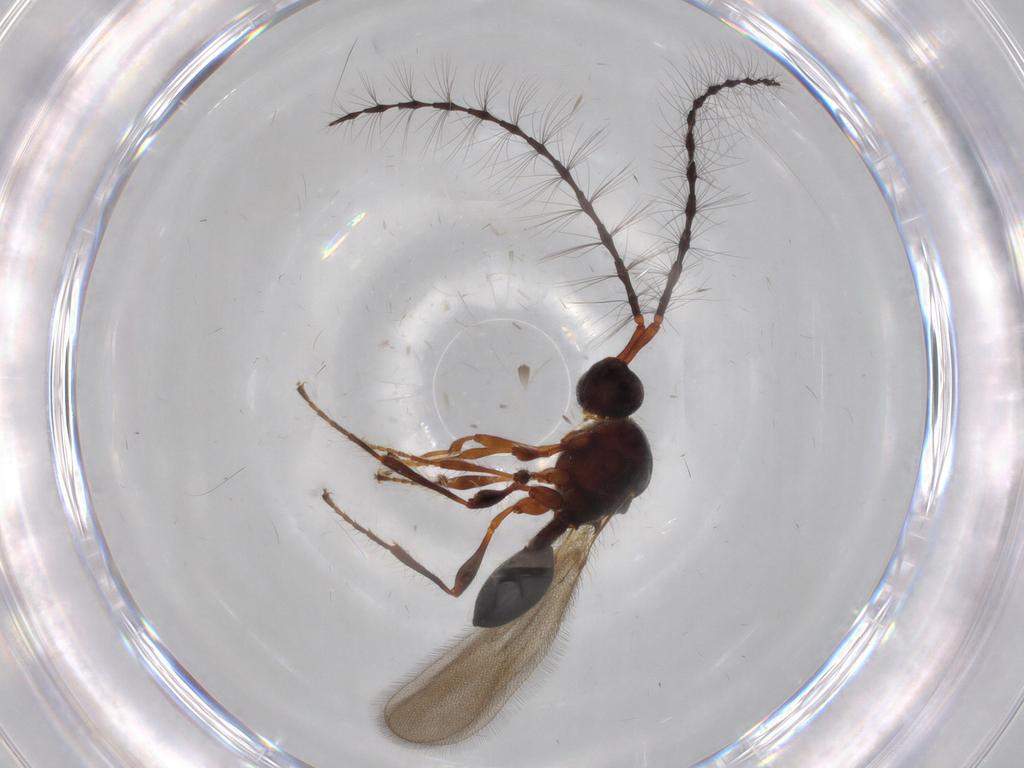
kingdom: Animalia
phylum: Arthropoda
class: Insecta
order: Hymenoptera
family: Diapriidae
